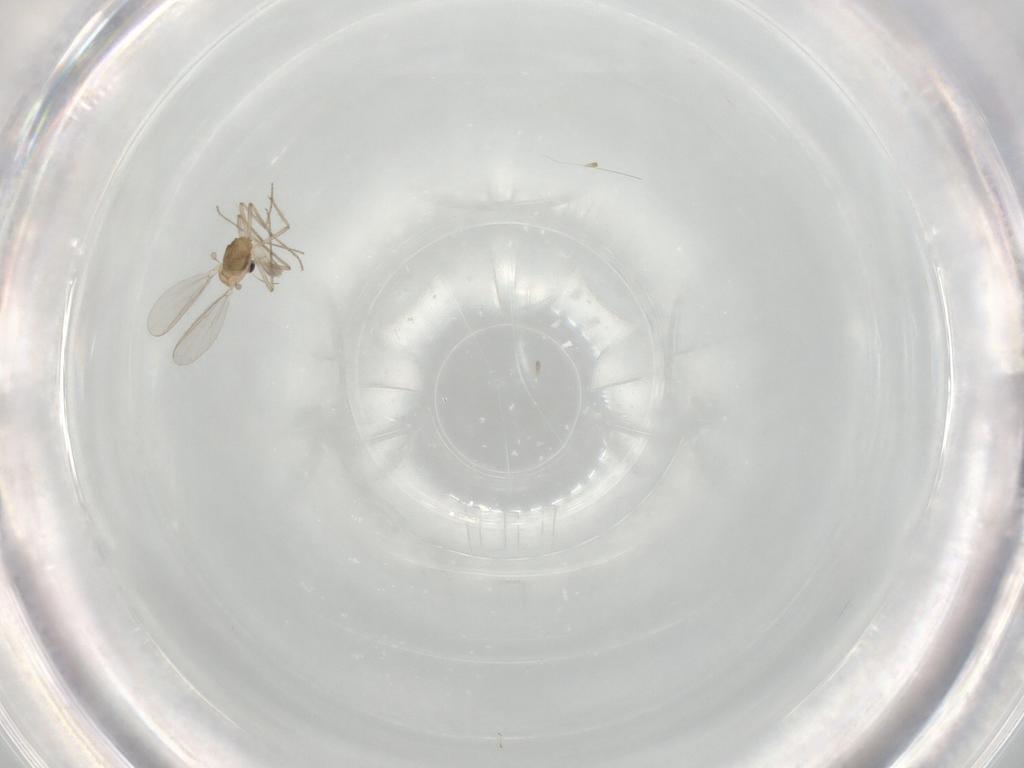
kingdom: Animalia
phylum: Arthropoda
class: Insecta
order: Diptera
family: Chironomidae
